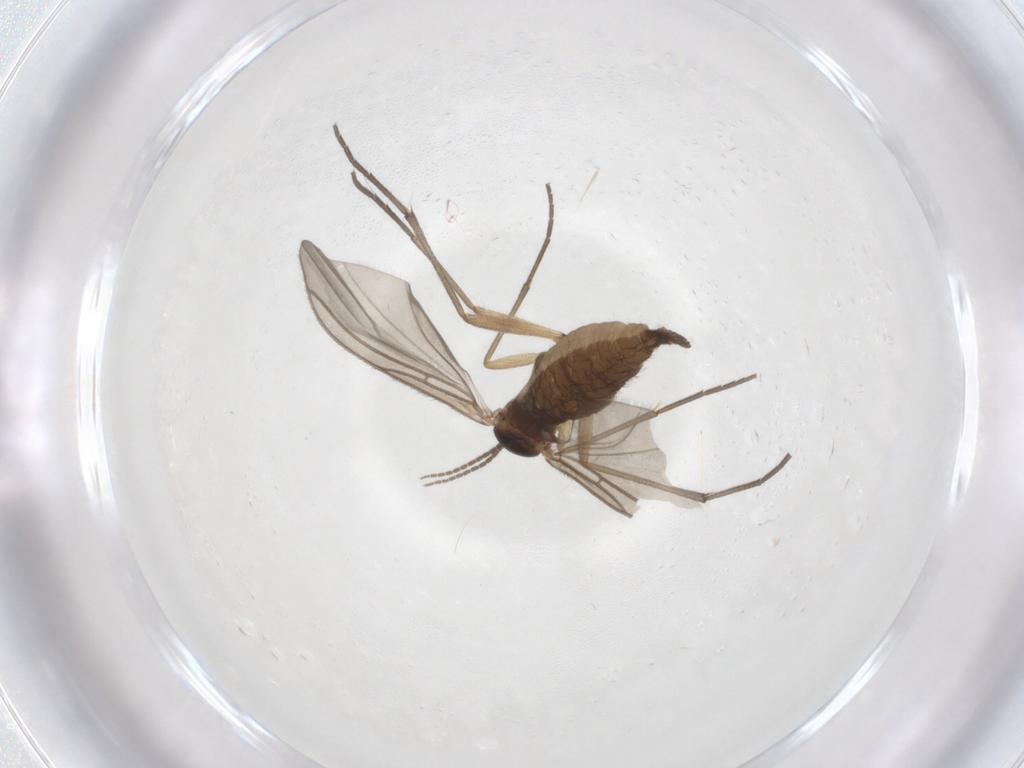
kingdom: Animalia
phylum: Arthropoda
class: Insecta
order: Diptera
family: Sciaridae
